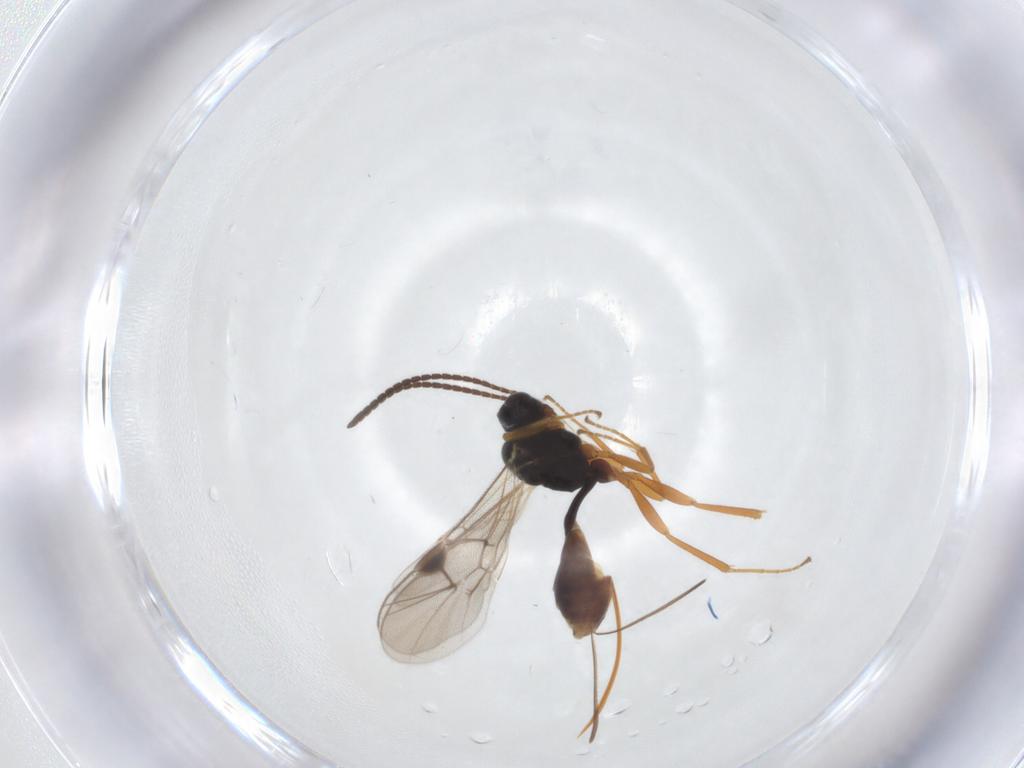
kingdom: Animalia
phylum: Arthropoda
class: Insecta
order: Hymenoptera
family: Ichneumonidae
